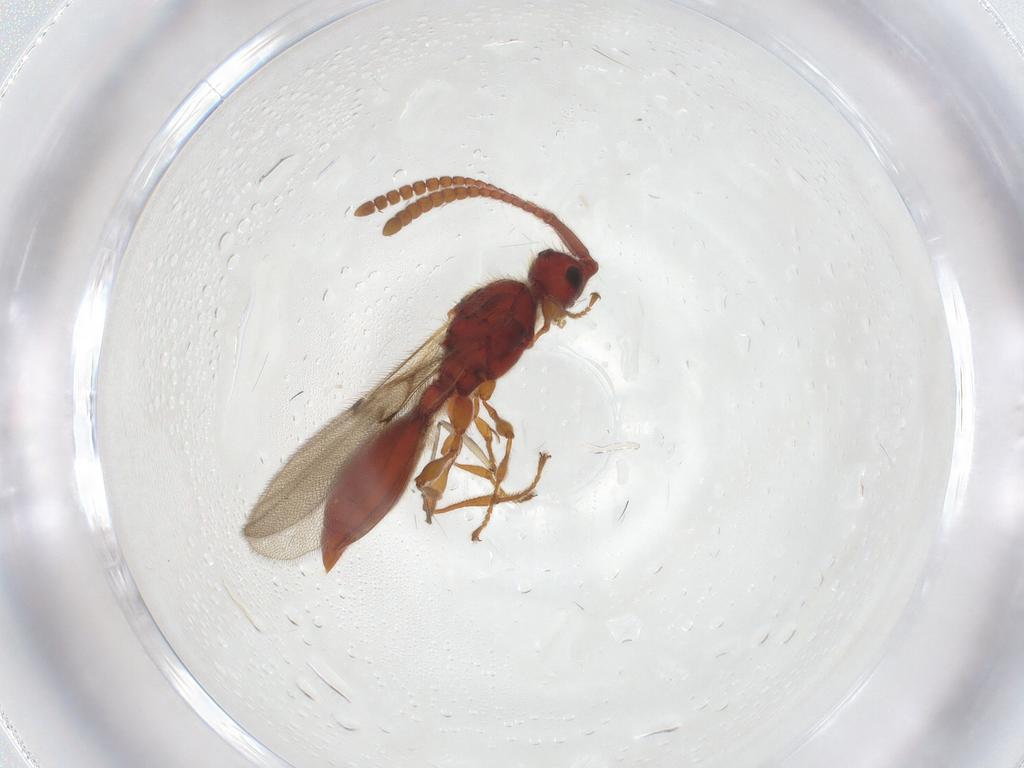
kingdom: Animalia
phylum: Arthropoda
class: Insecta
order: Hymenoptera
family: Diapriidae
